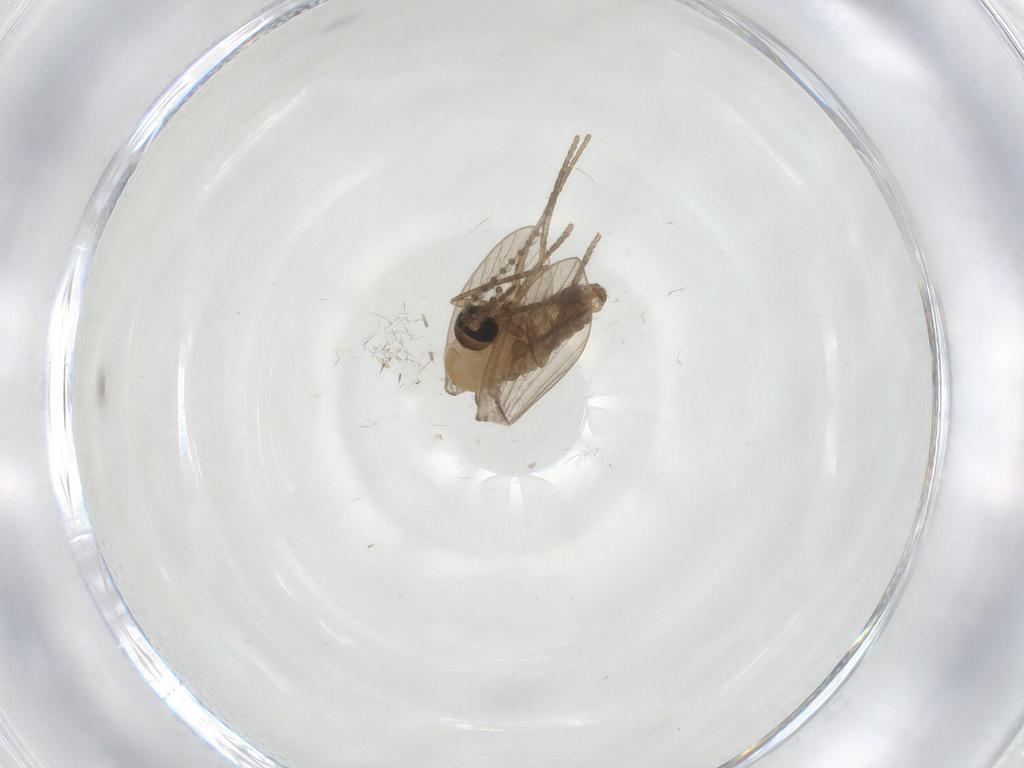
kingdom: Animalia
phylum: Arthropoda
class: Insecta
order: Diptera
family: Psychodidae
